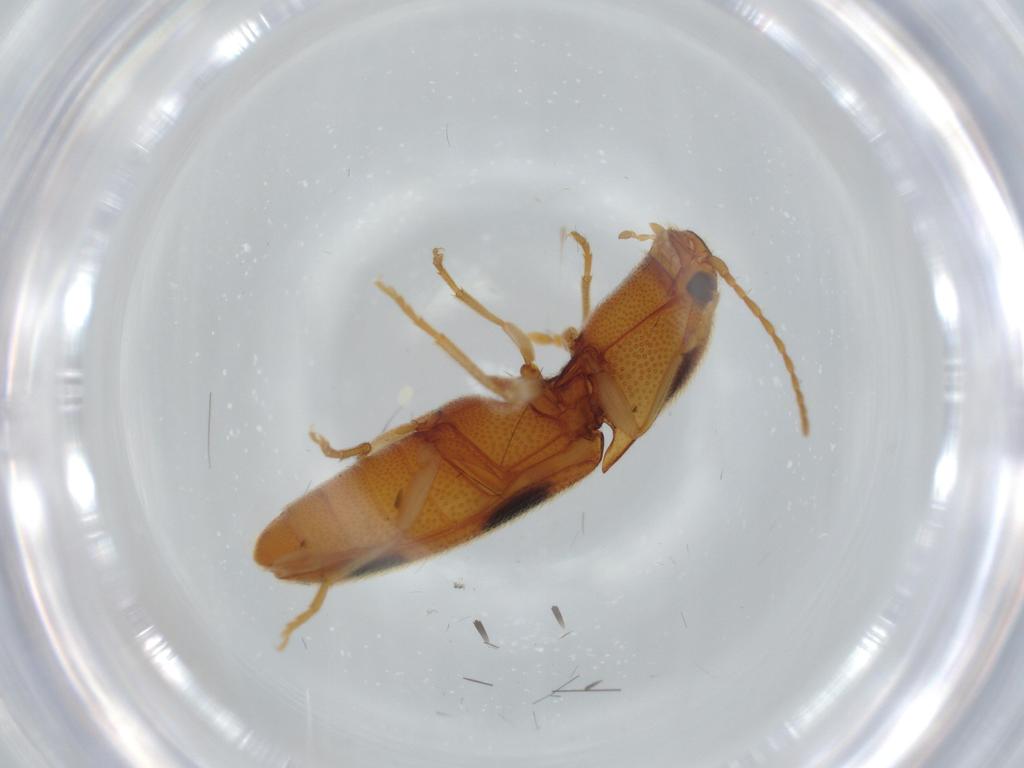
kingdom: Animalia
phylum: Arthropoda
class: Insecta
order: Coleoptera
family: Elateridae
